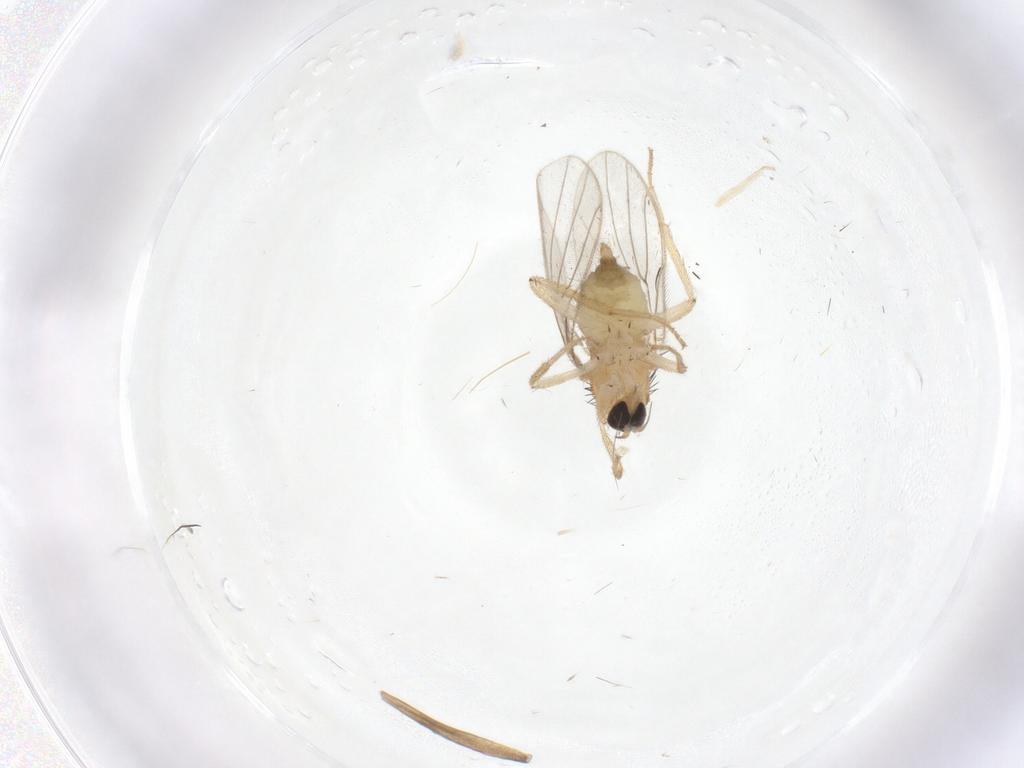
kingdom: Animalia
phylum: Arthropoda
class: Insecta
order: Diptera
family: Hybotidae
